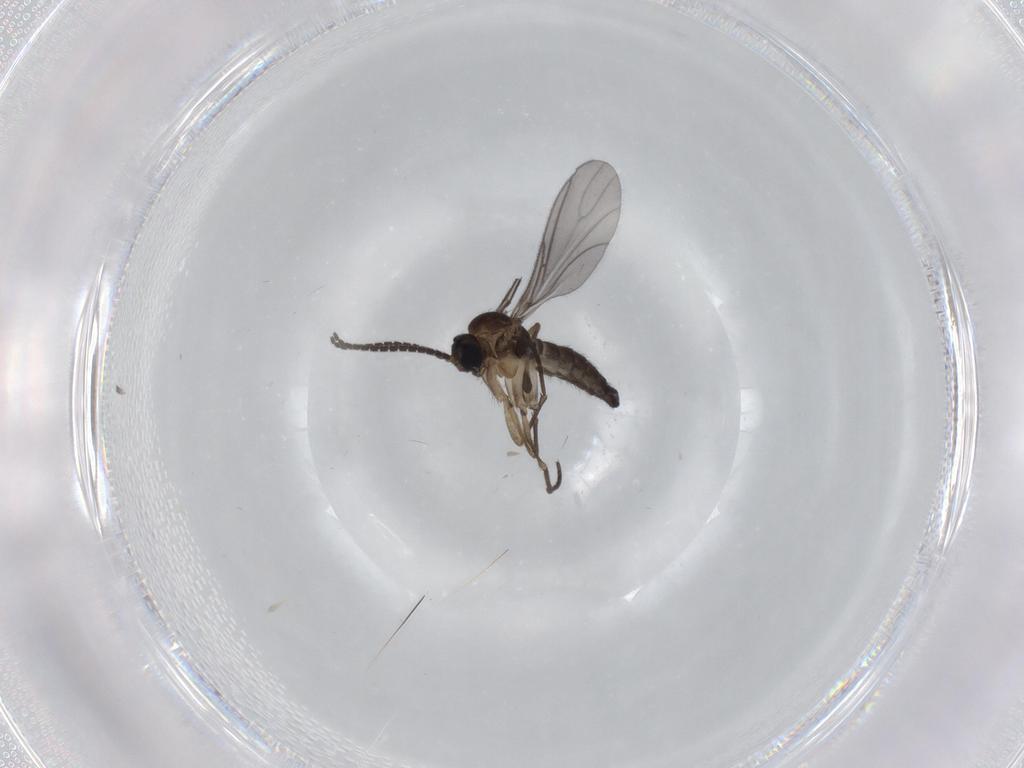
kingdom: Animalia
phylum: Arthropoda
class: Insecta
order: Diptera
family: Sciaridae
